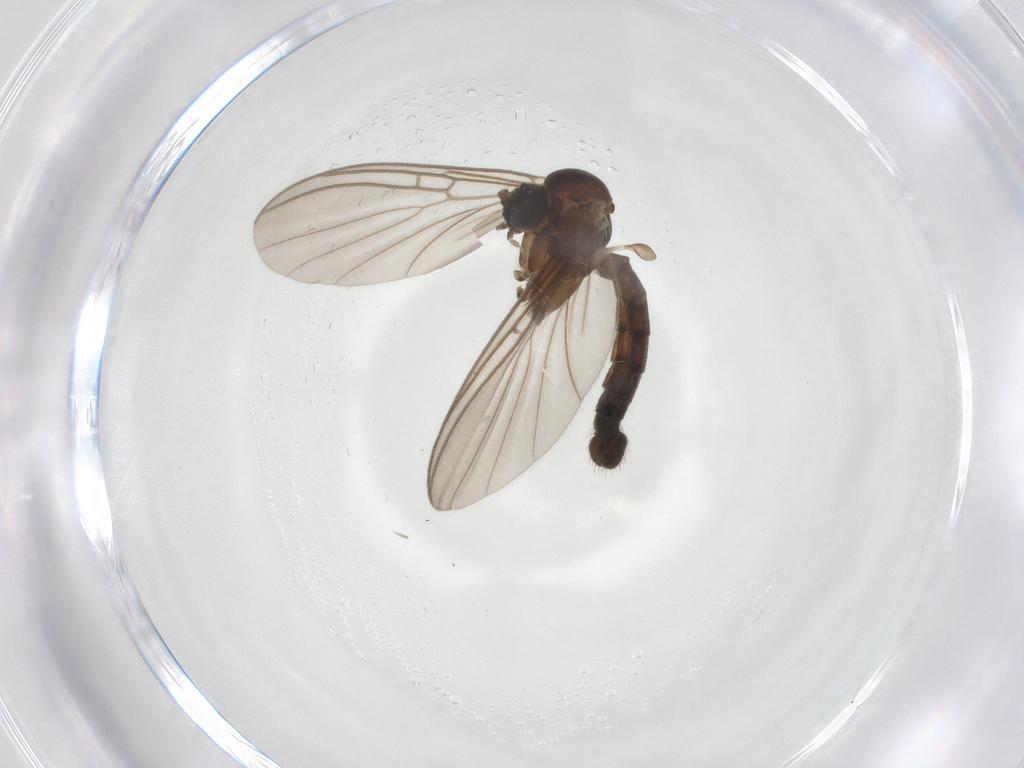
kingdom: Animalia
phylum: Arthropoda
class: Insecta
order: Diptera
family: Mycetophilidae
